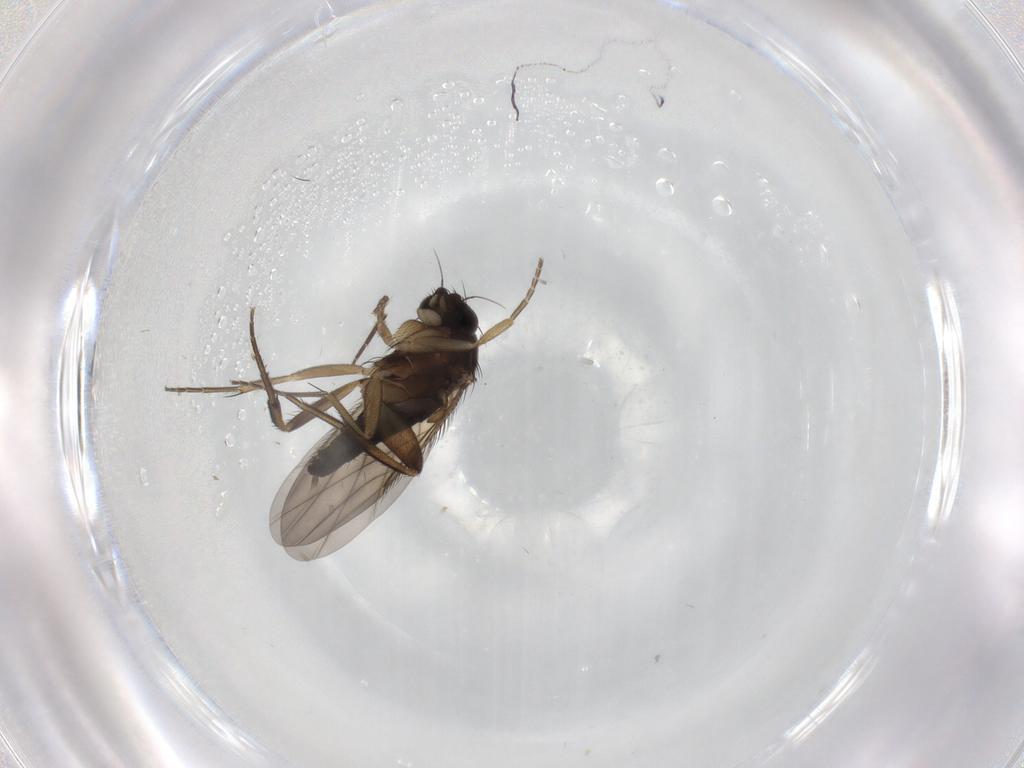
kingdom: Animalia
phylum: Arthropoda
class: Insecta
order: Diptera
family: Phoridae
